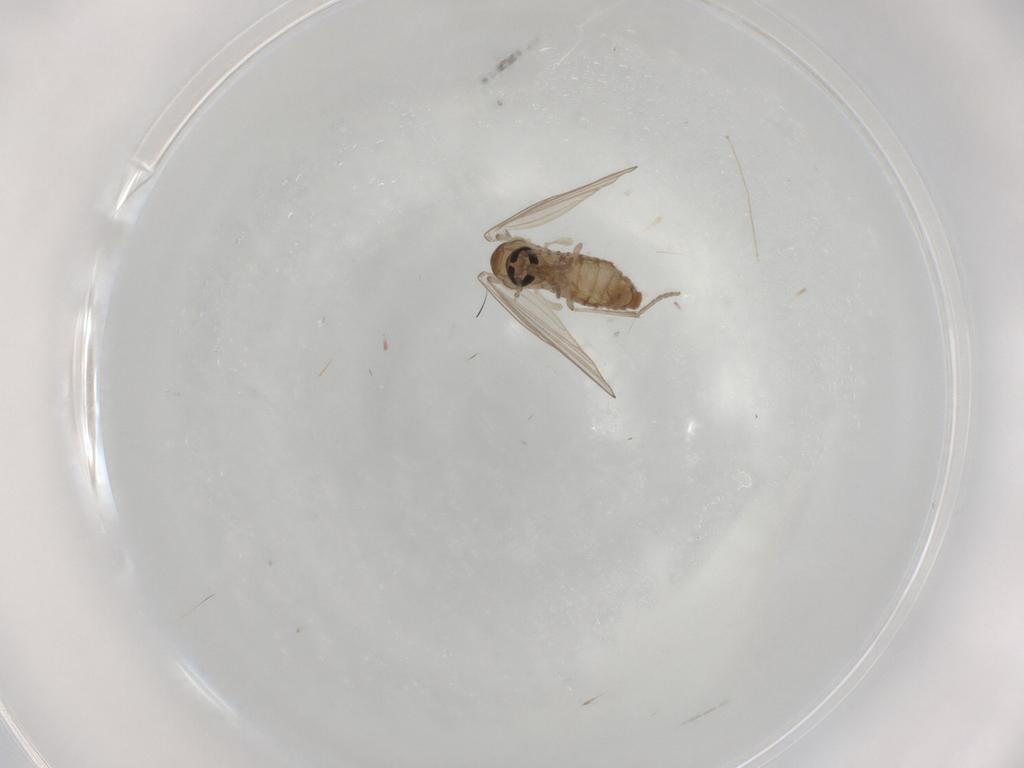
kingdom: Animalia
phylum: Arthropoda
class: Insecta
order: Diptera
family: Psychodidae
